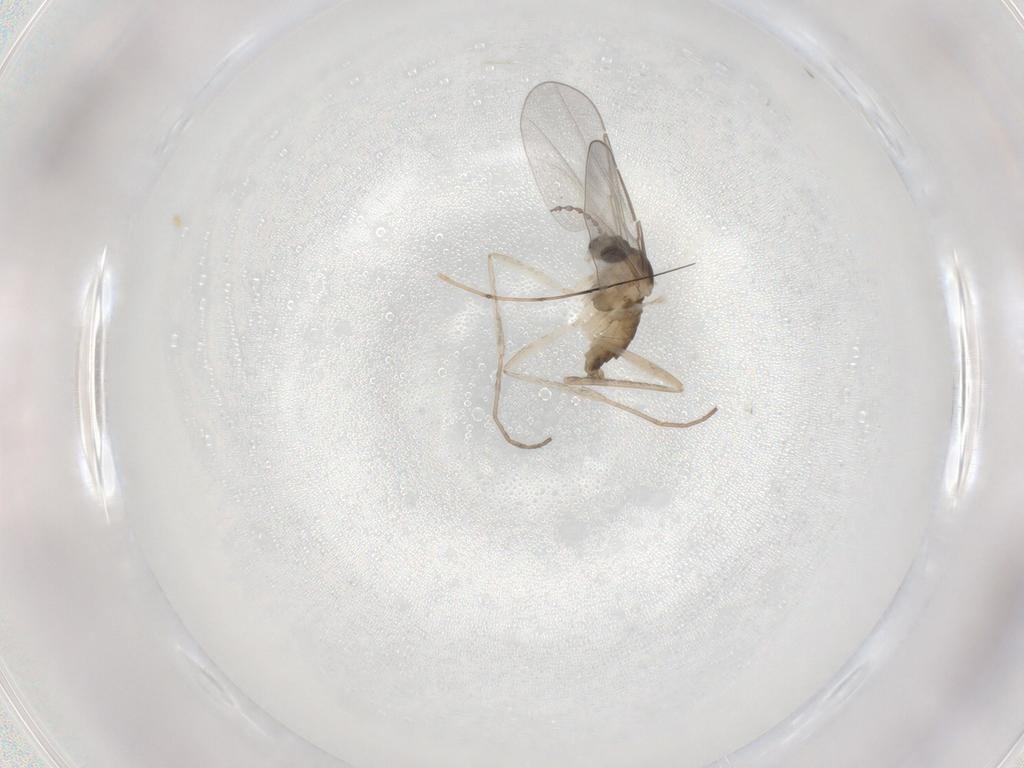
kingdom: Animalia
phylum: Arthropoda
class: Insecta
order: Diptera
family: Cecidomyiidae
